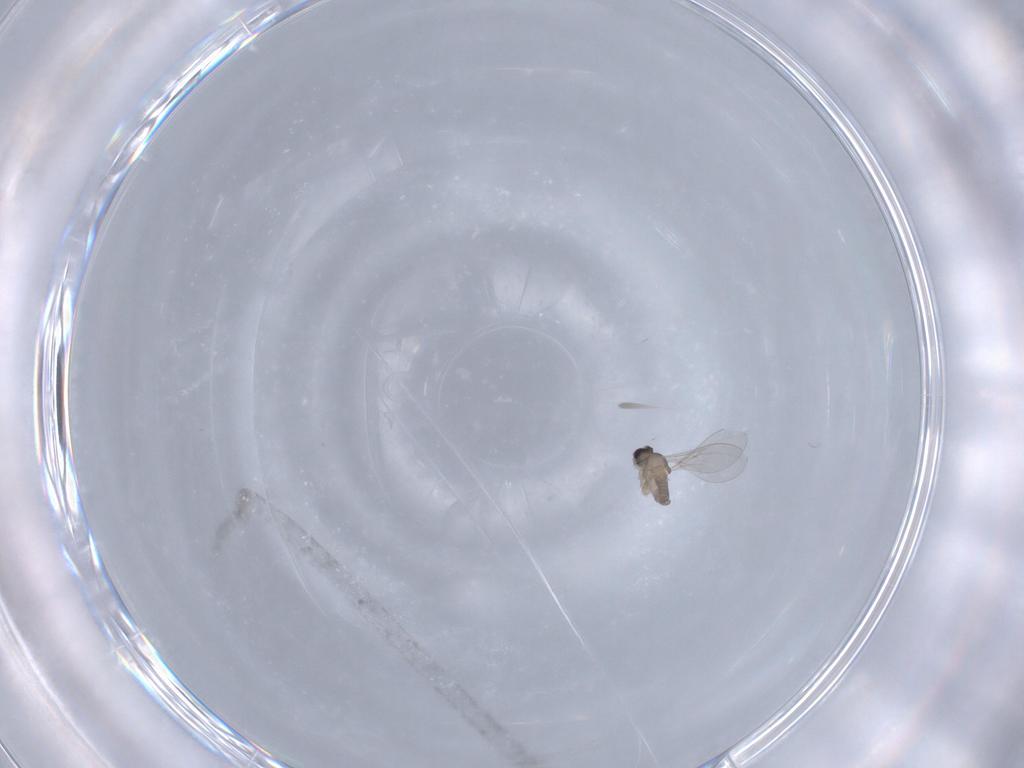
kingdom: Animalia
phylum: Arthropoda
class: Insecta
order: Diptera
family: Cecidomyiidae
